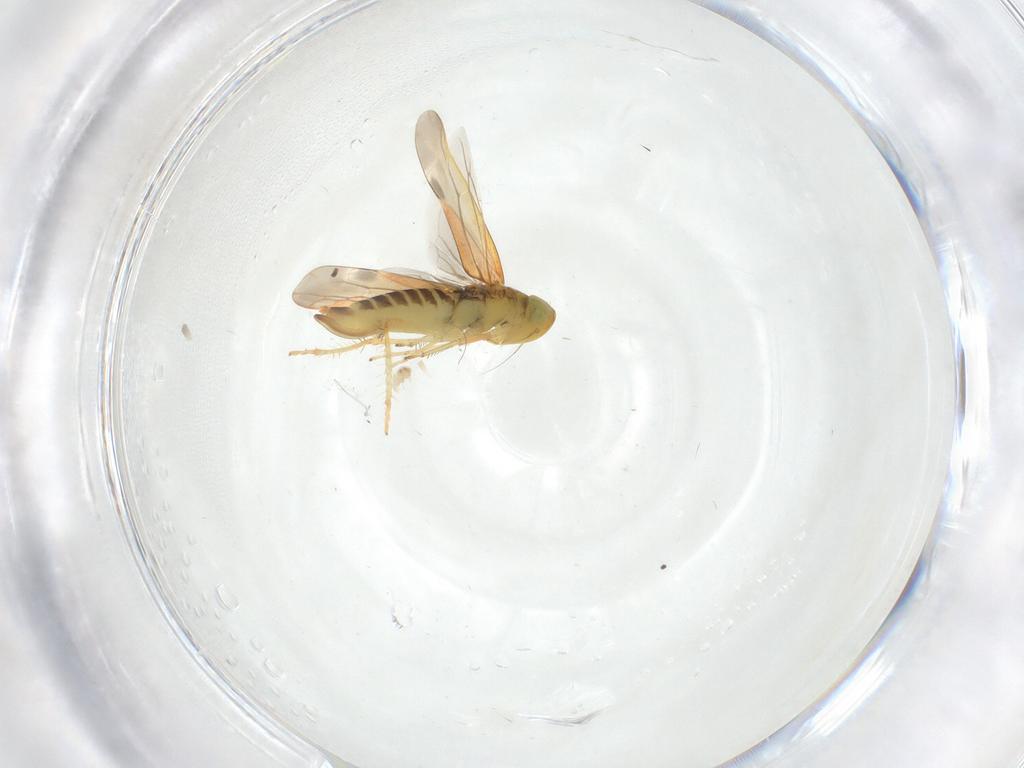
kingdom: Animalia
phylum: Arthropoda
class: Insecta
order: Hemiptera
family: Cicadellidae
